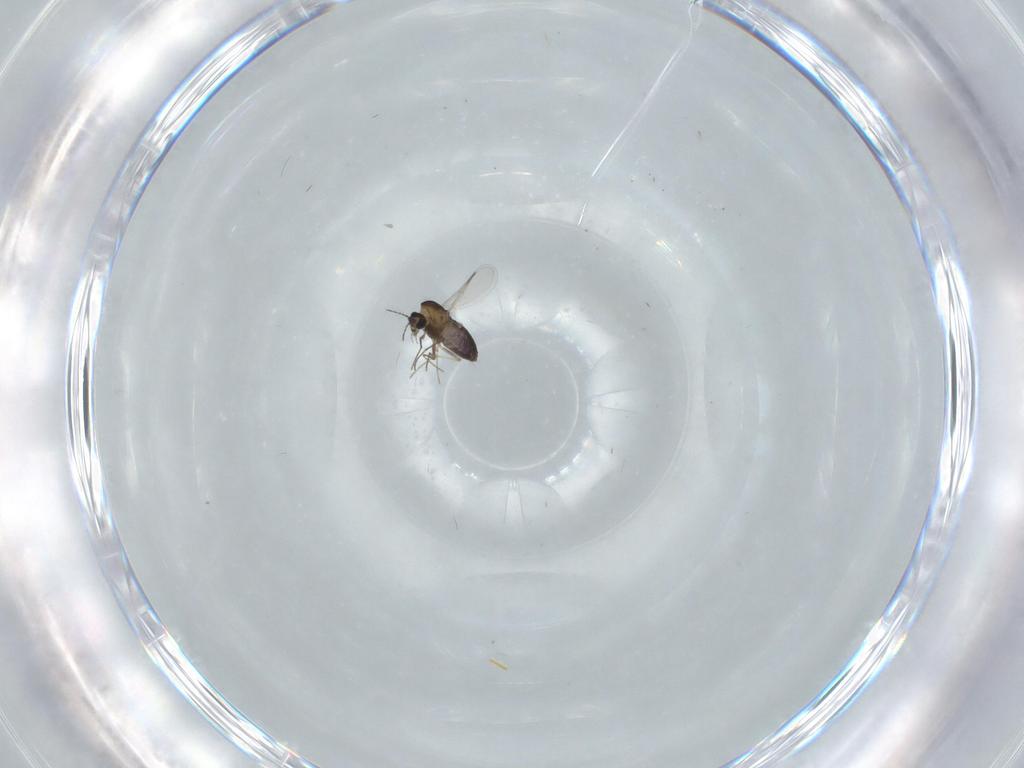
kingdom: Animalia
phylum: Arthropoda
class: Insecta
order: Diptera
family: Chironomidae
